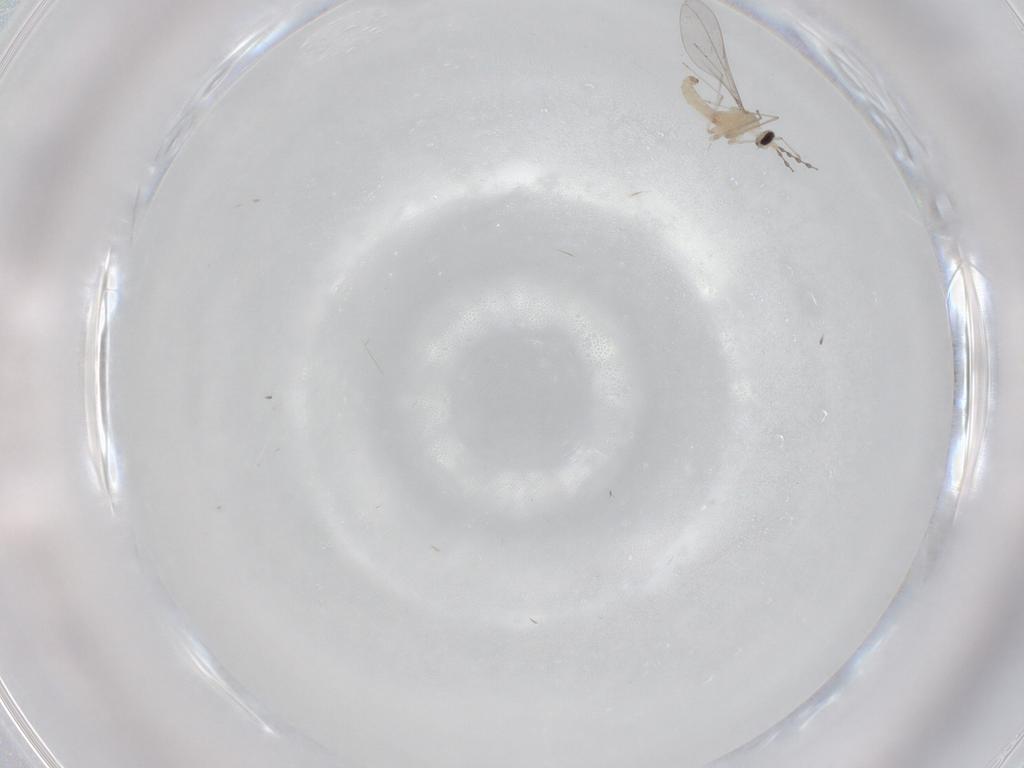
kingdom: Animalia
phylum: Arthropoda
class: Insecta
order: Diptera
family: Cecidomyiidae
